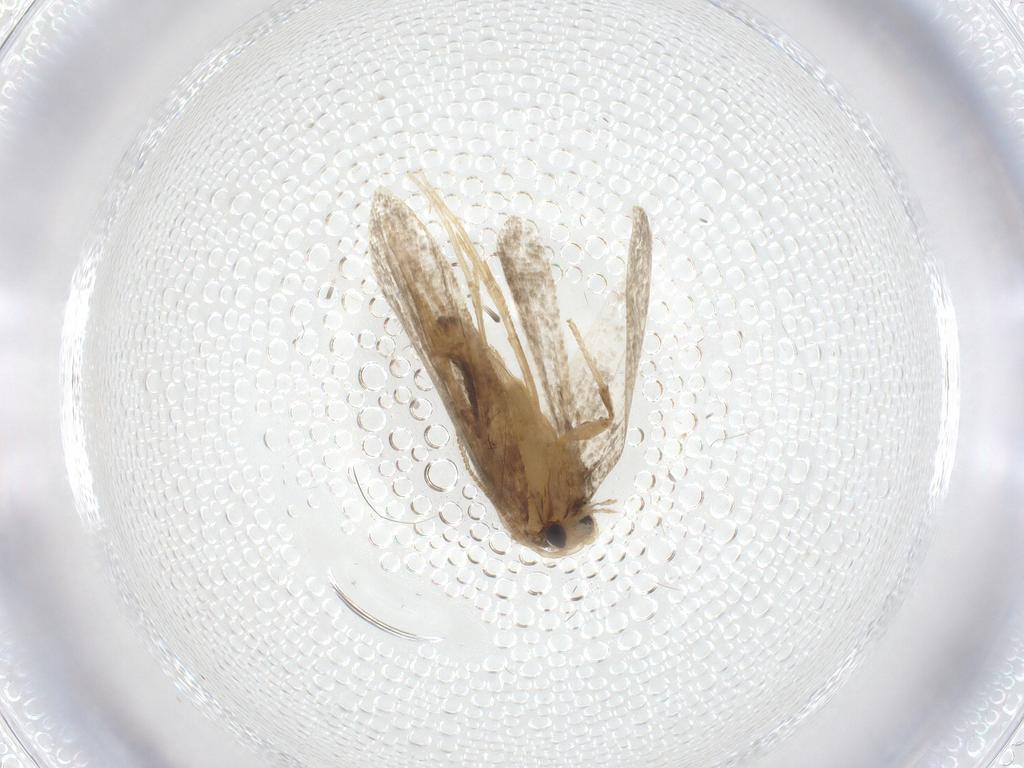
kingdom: Animalia
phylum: Arthropoda
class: Insecta
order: Lepidoptera
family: Psychidae
